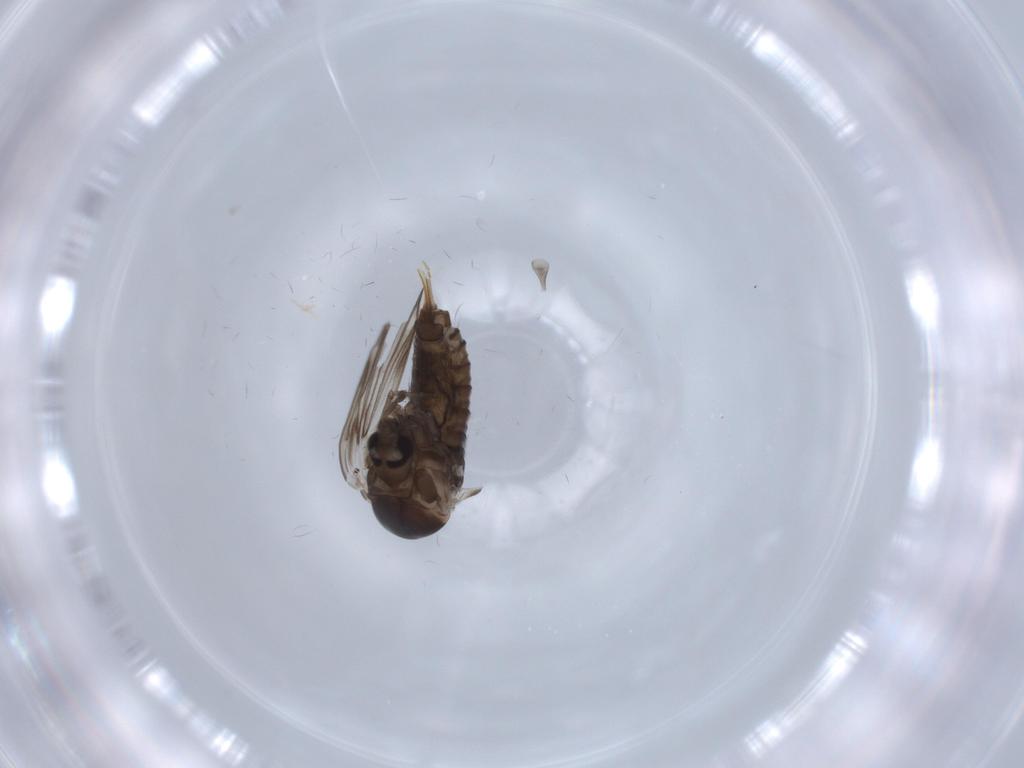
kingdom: Animalia
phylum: Arthropoda
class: Insecta
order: Diptera
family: Psychodidae
